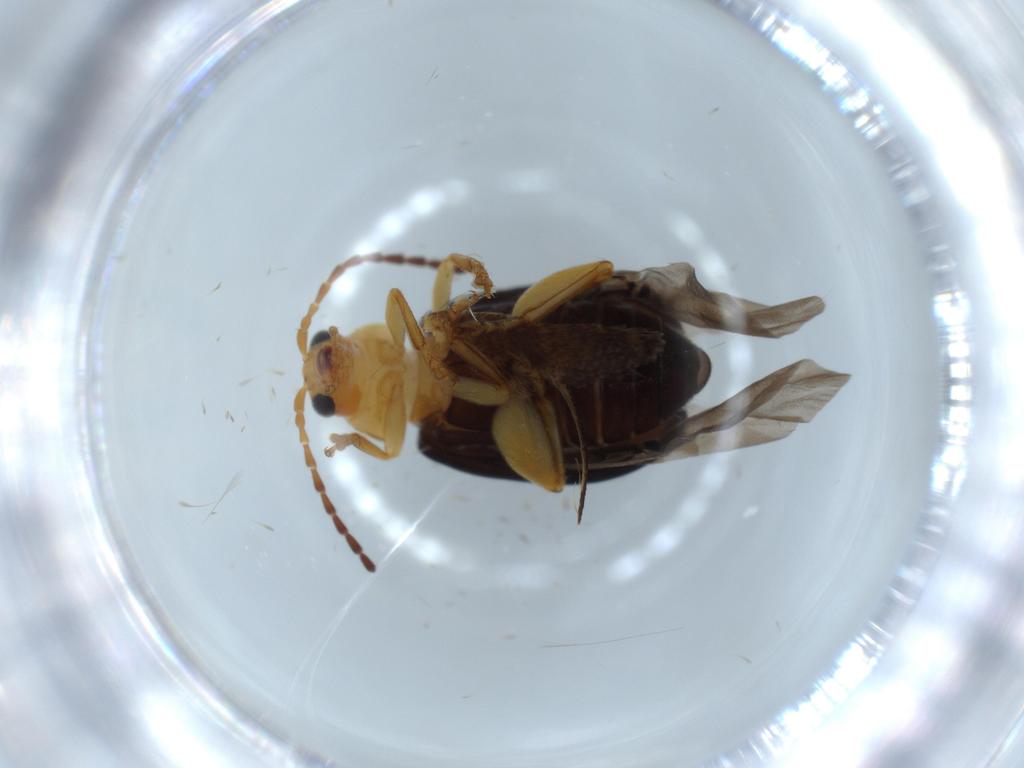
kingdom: Animalia
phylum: Arthropoda
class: Insecta
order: Coleoptera
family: Chrysomelidae
